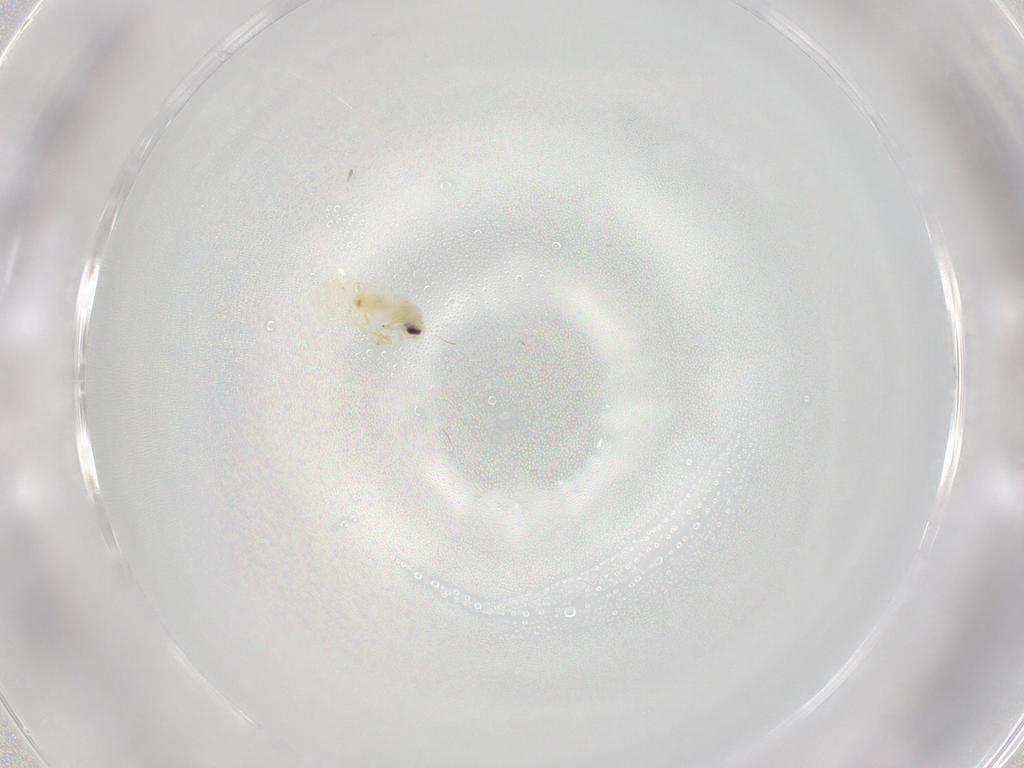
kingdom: Animalia
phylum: Arthropoda
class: Insecta
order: Hemiptera
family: Aleyrodidae
